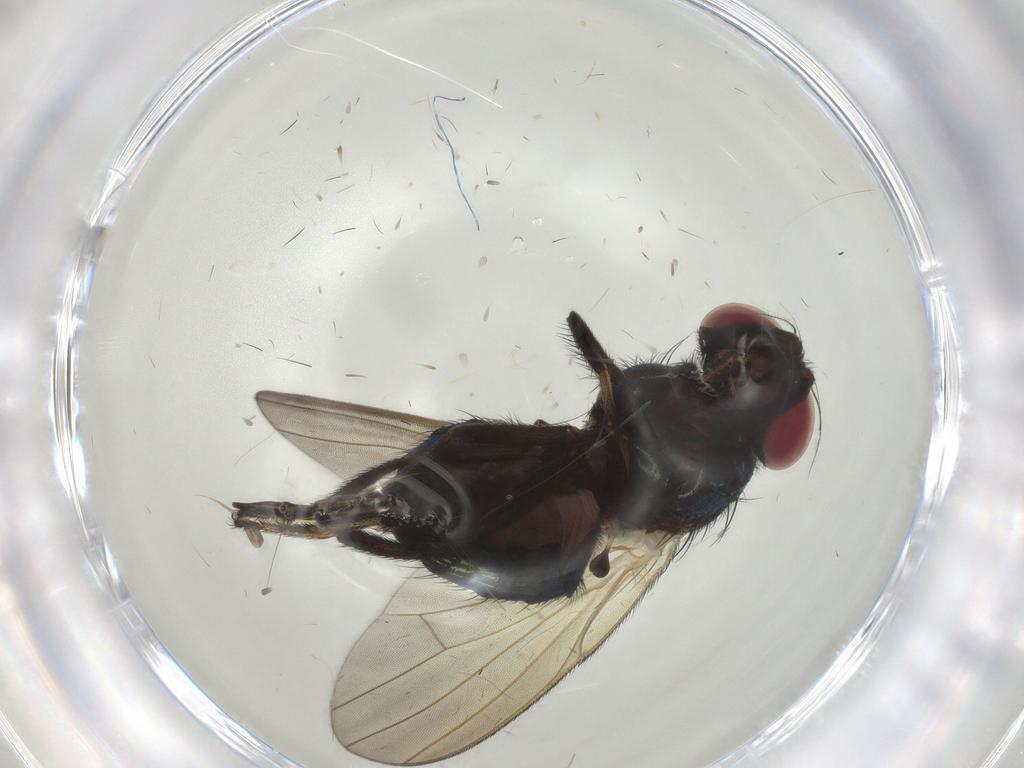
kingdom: Animalia
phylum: Arthropoda
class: Insecta
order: Diptera
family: Lonchaeidae
